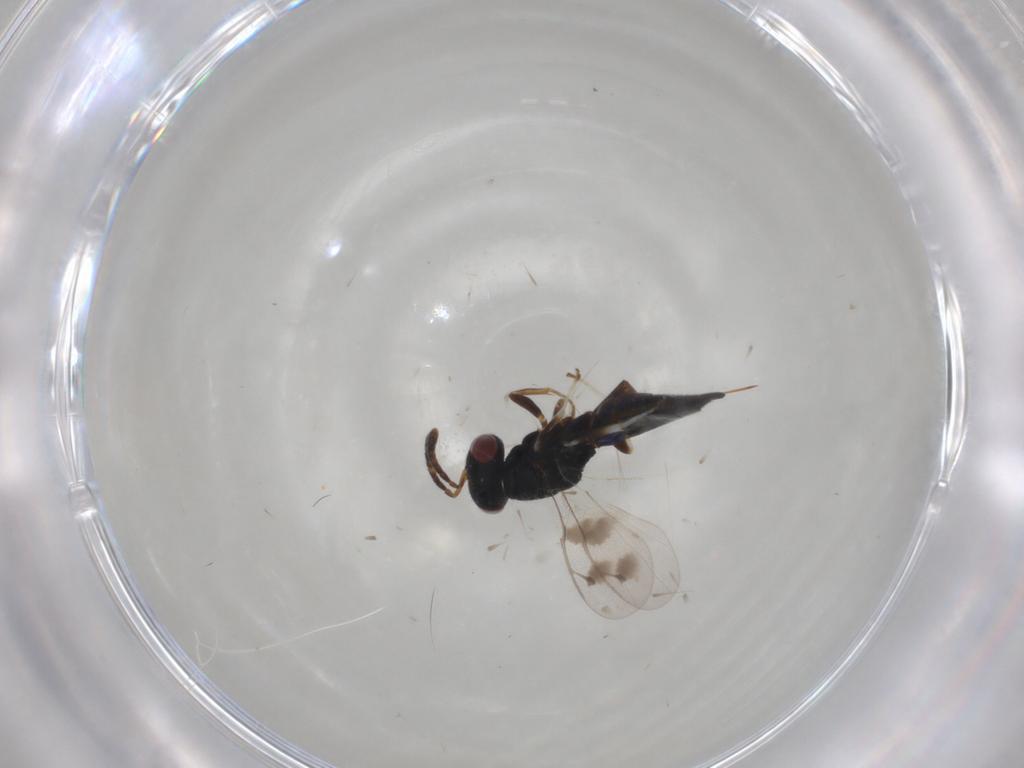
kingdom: Animalia
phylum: Arthropoda
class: Insecta
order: Hymenoptera
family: Pteromalidae
